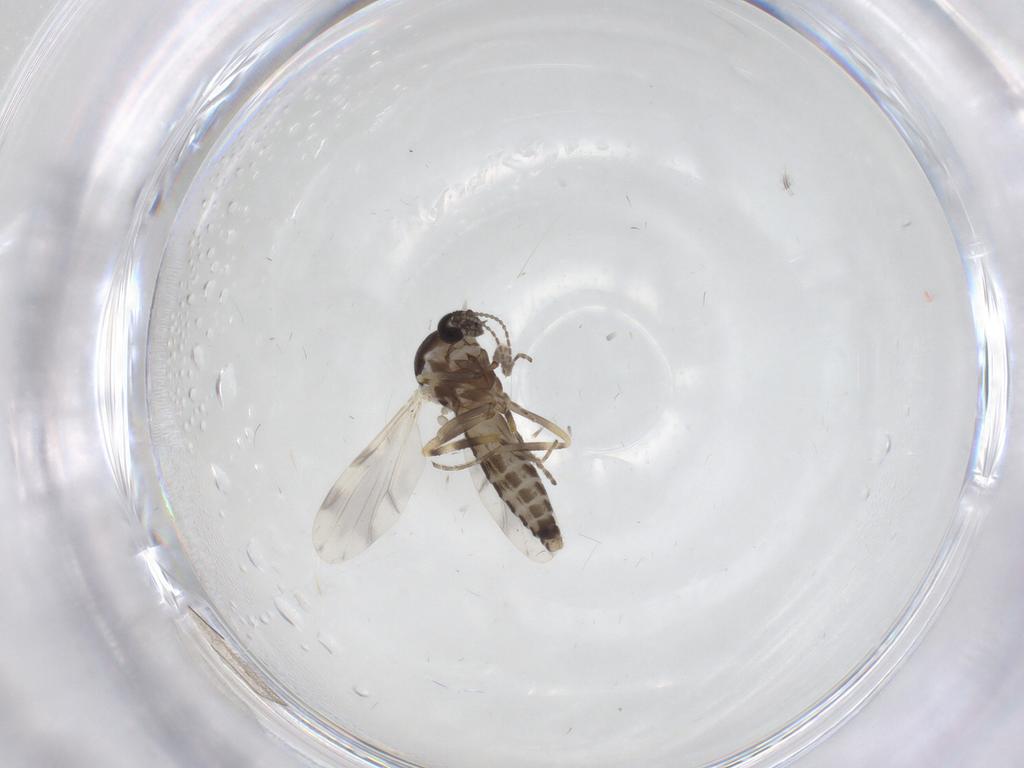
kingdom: Animalia
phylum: Arthropoda
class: Insecta
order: Diptera
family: Ceratopogonidae
